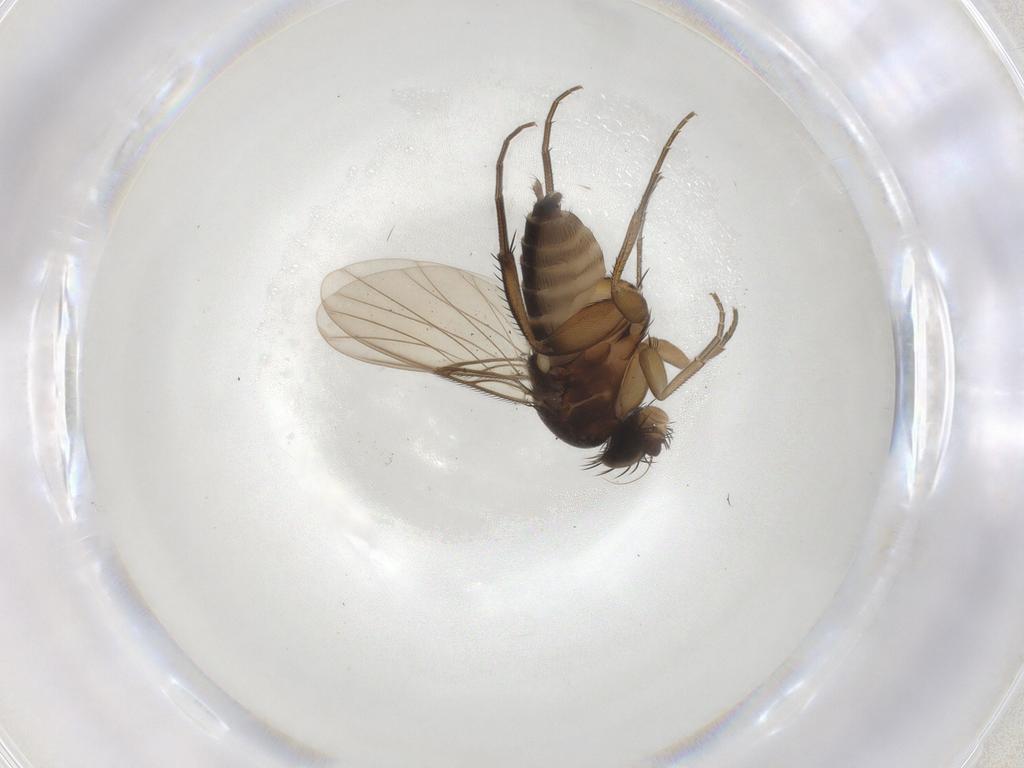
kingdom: Animalia
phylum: Arthropoda
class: Insecta
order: Diptera
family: Phoridae
